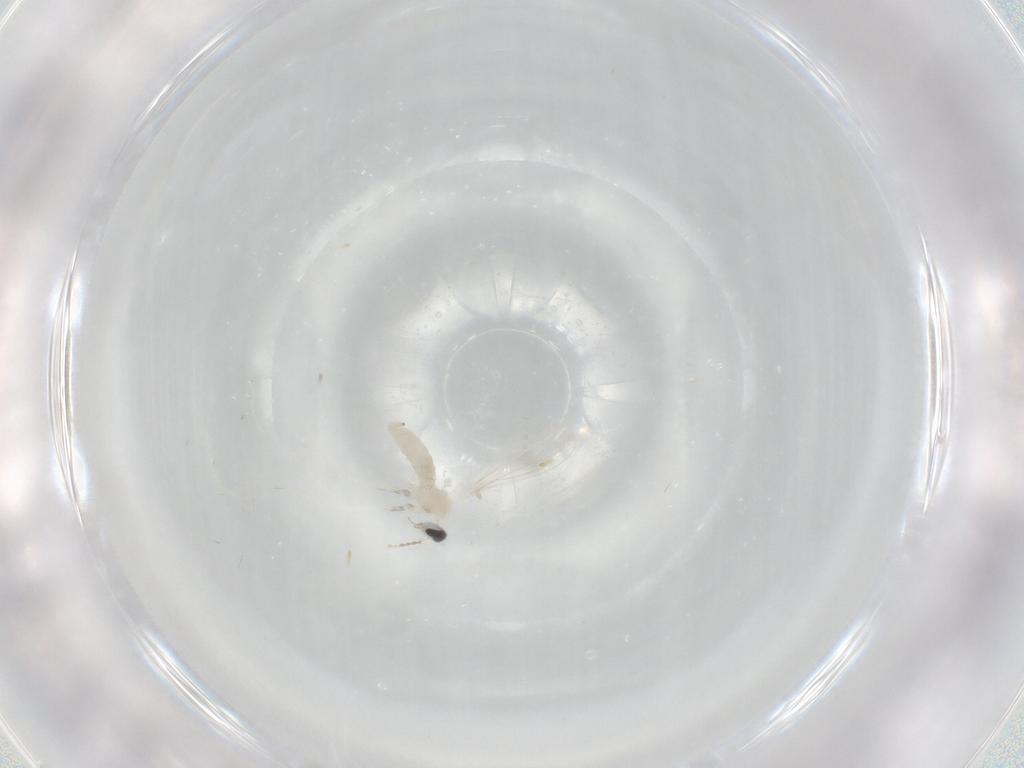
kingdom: Animalia
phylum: Arthropoda
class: Insecta
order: Diptera
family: Cecidomyiidae
